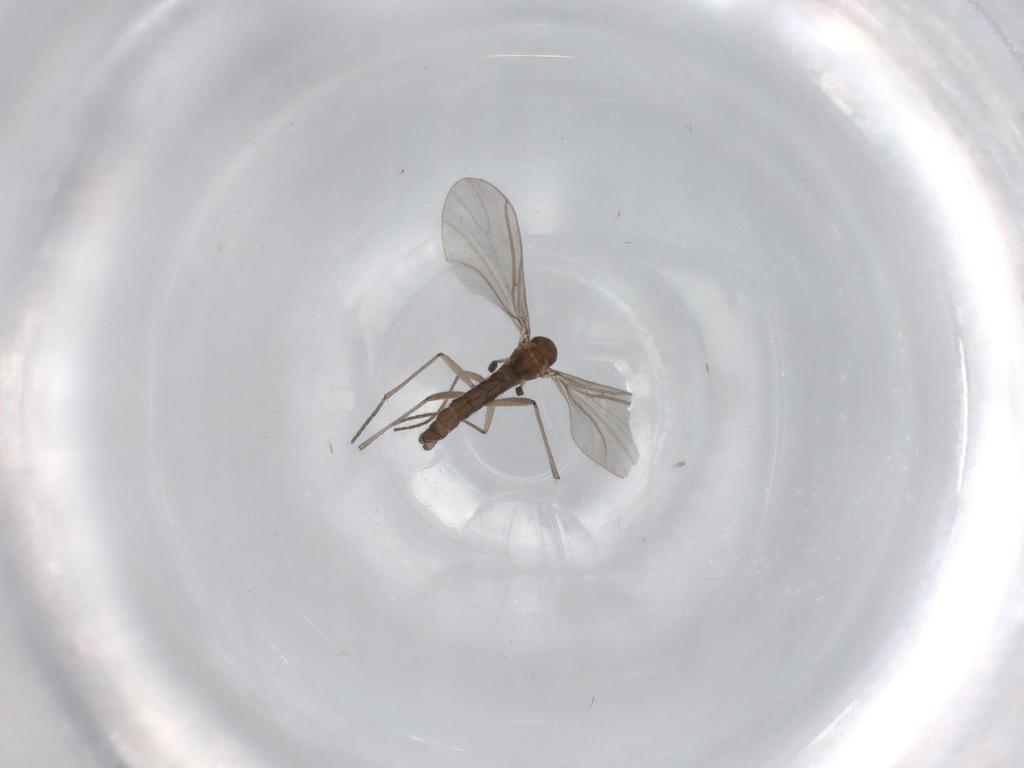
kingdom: Animalia
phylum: Arthropoda
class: Insecta
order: Diptera
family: Sciaridae
